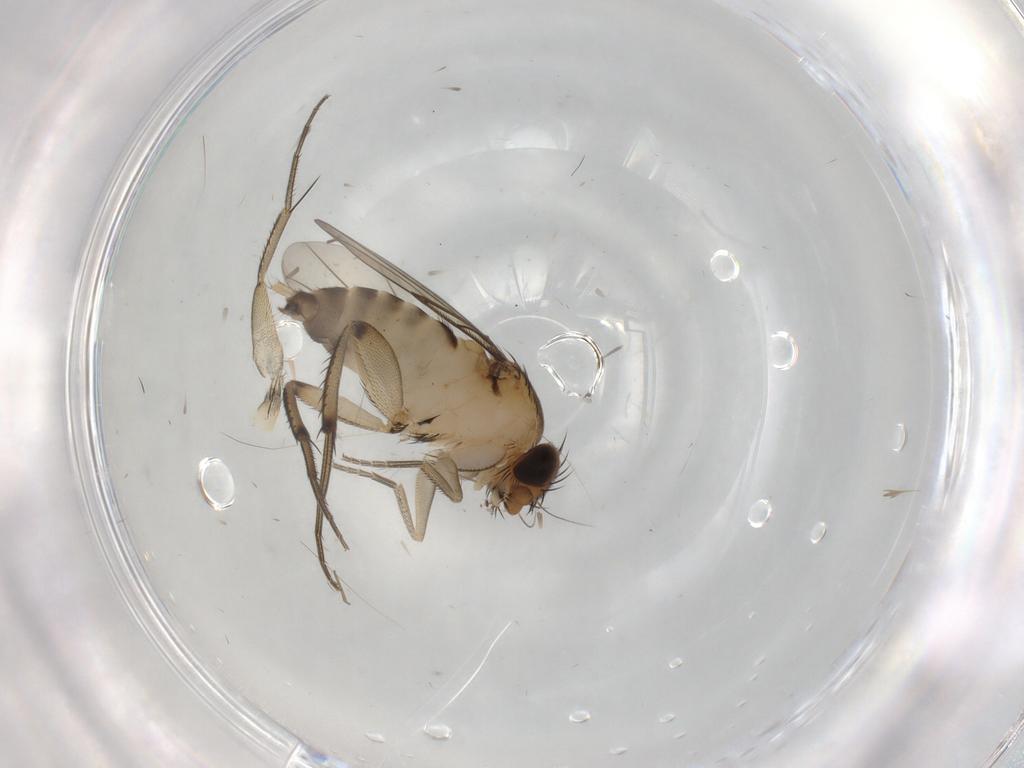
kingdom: Animalia
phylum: Arthropoda
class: Insecta
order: Diptera
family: Phoridae
